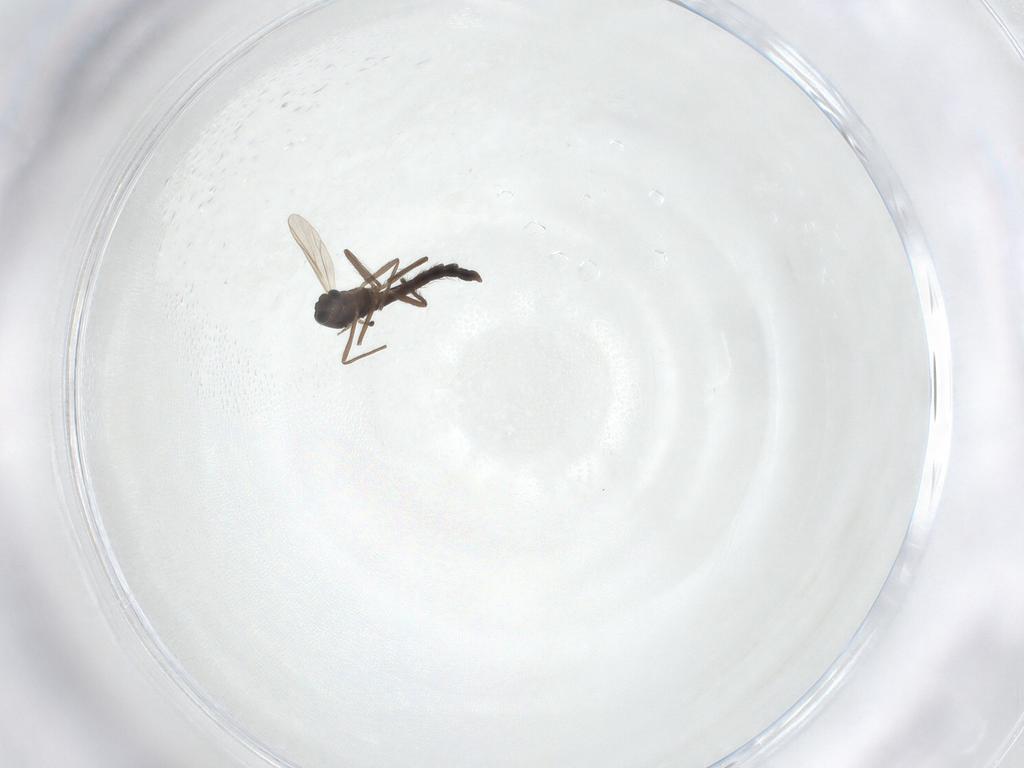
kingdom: Animalia
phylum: Arthropoda
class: Insecta
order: Diptera
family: Chironomidae
